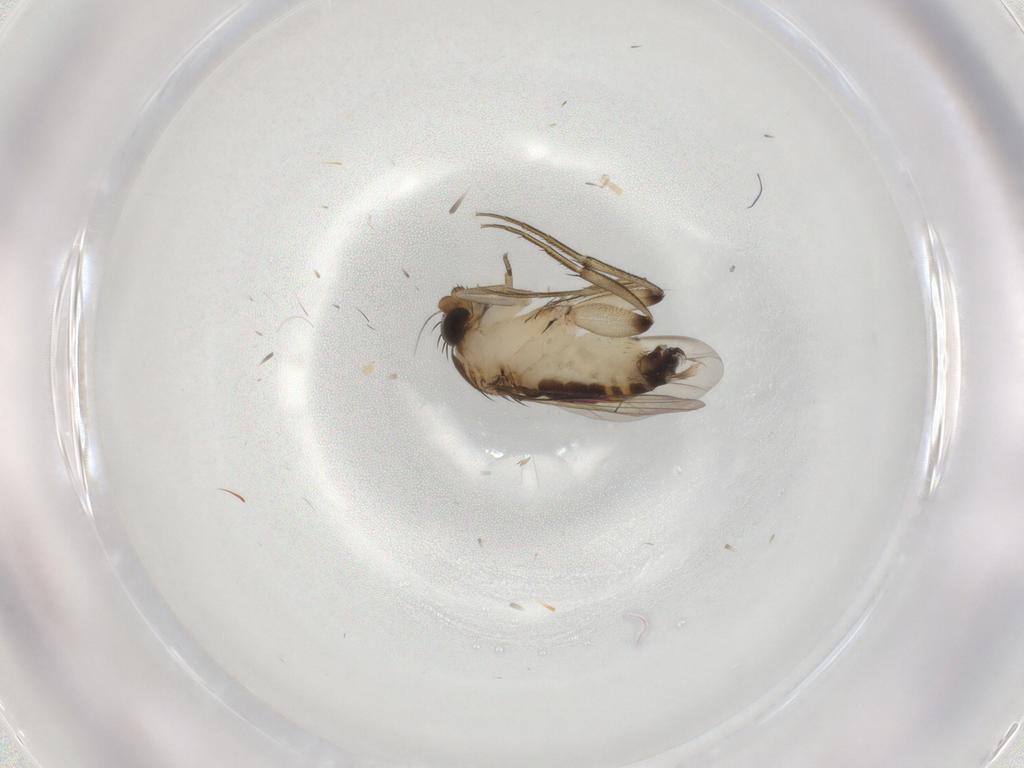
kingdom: Animalia
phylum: Arthropoda
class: Insecta
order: Diptera
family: Phoridae
